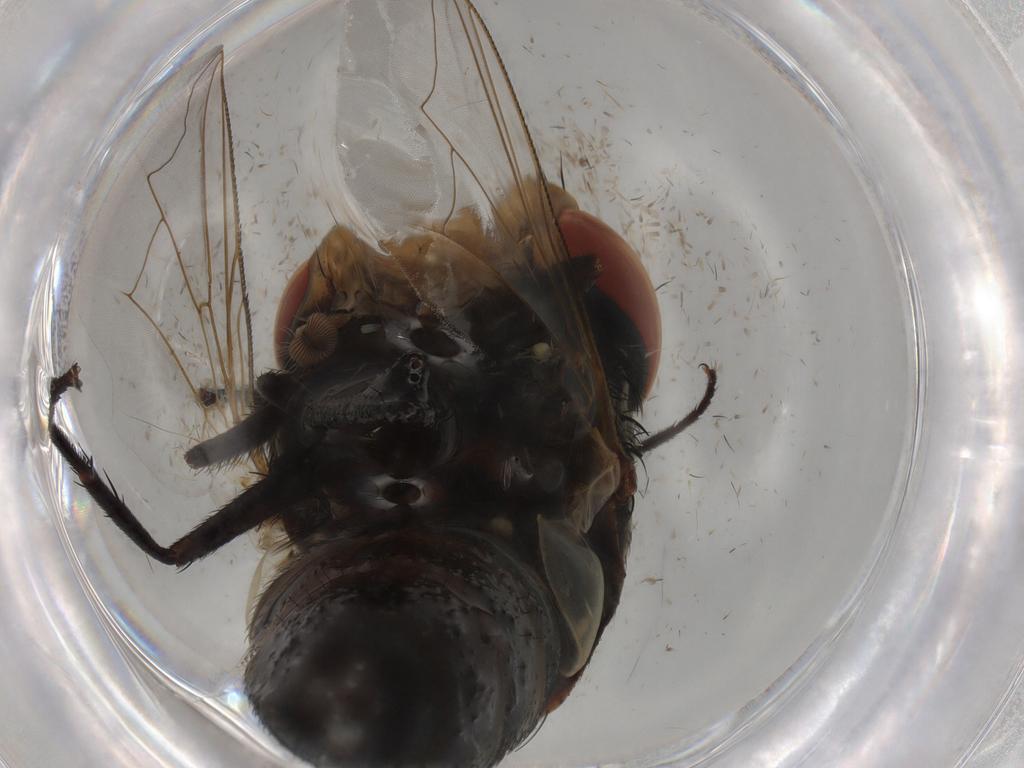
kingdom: Animalia
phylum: Arthropoda
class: Insecta
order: Diptera
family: Muscidae
